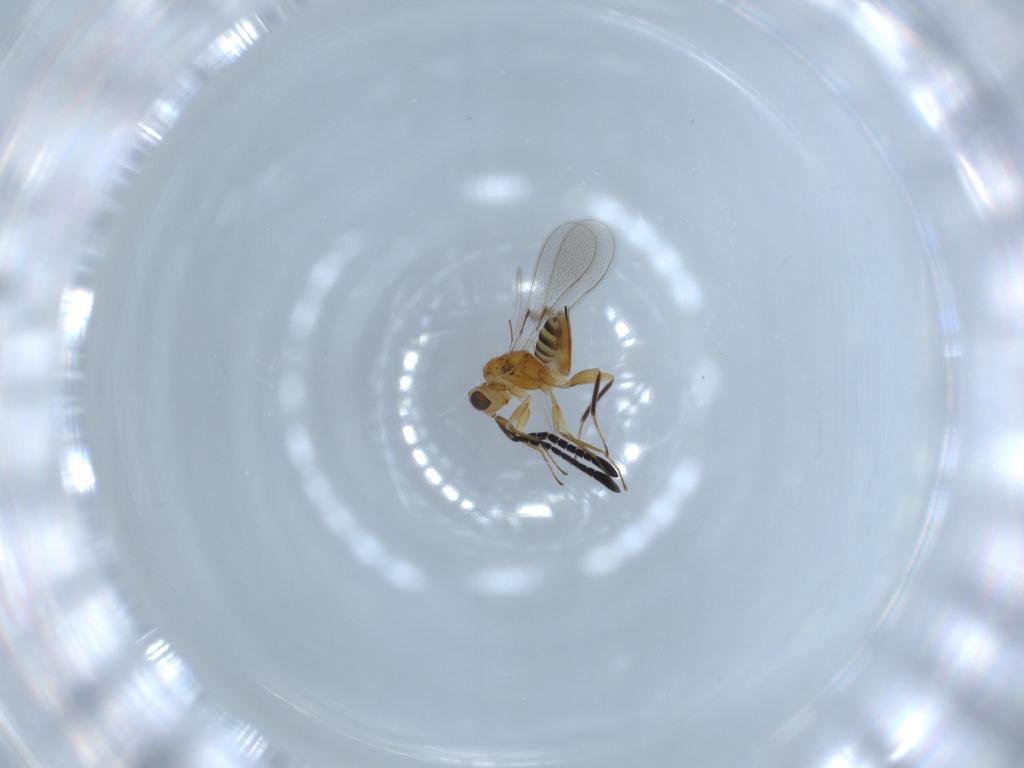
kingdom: Animalia
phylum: Arthropoda
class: Insecta
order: Hymenoptera
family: Mymaridae
